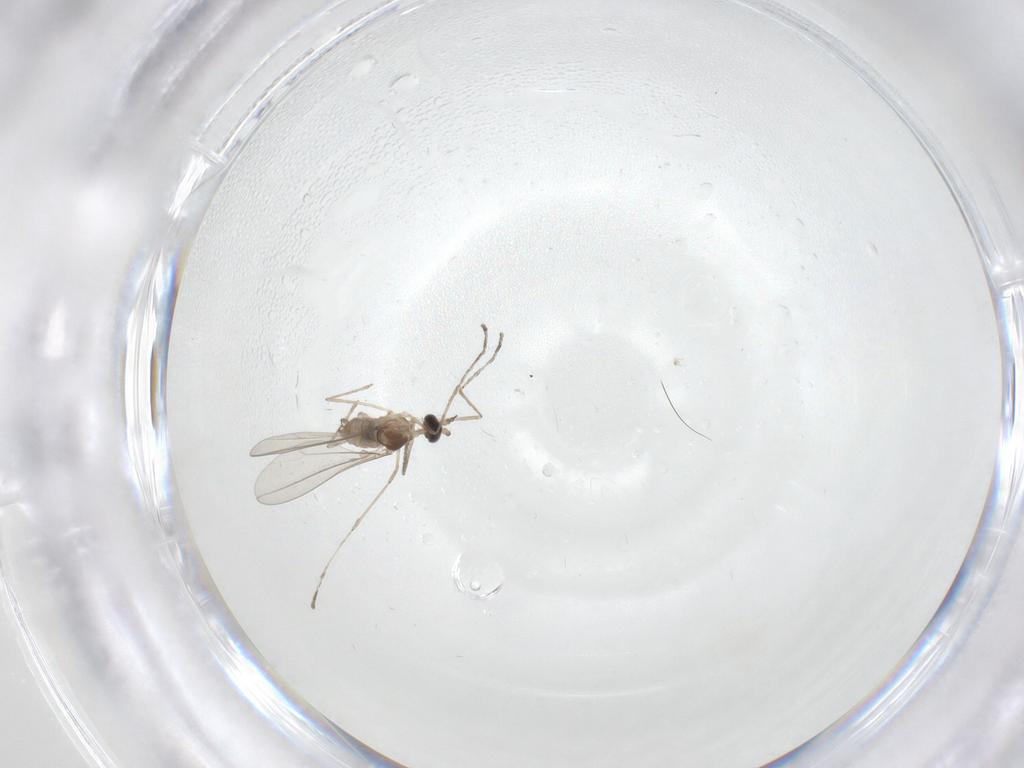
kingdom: Animalia
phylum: Arthropoda
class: Insecta
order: Diptera
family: Cecidomyiidae
